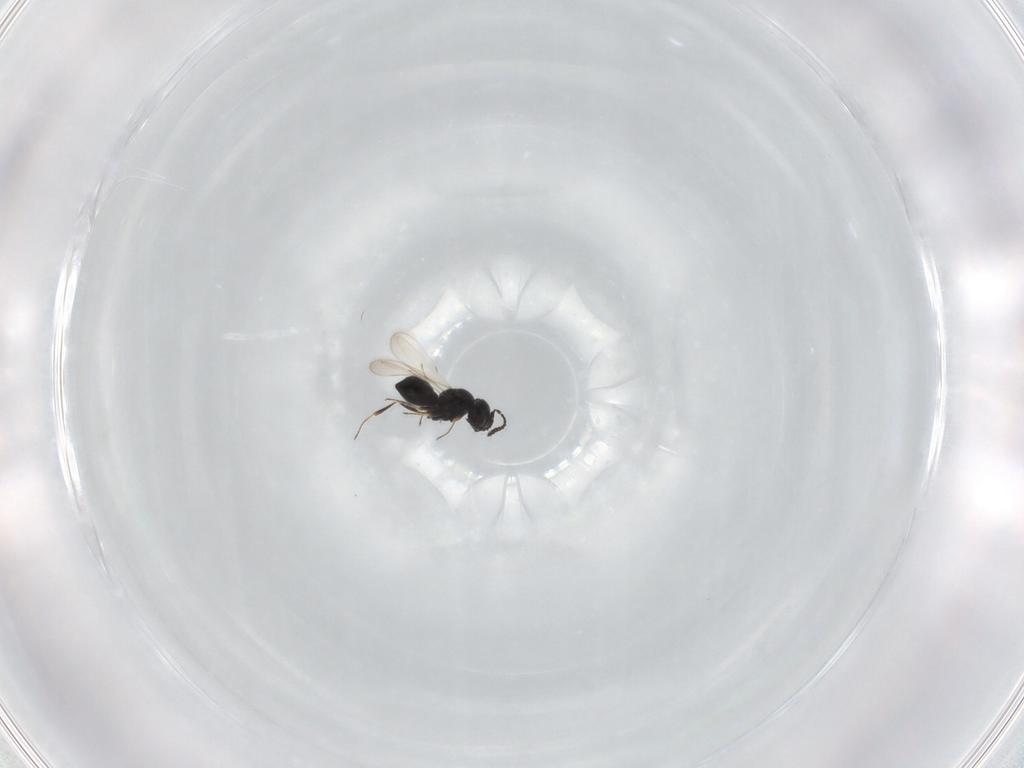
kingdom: Animalia
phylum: Arthropoda
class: Insecta
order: Hymenoptera
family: Scelionidae
